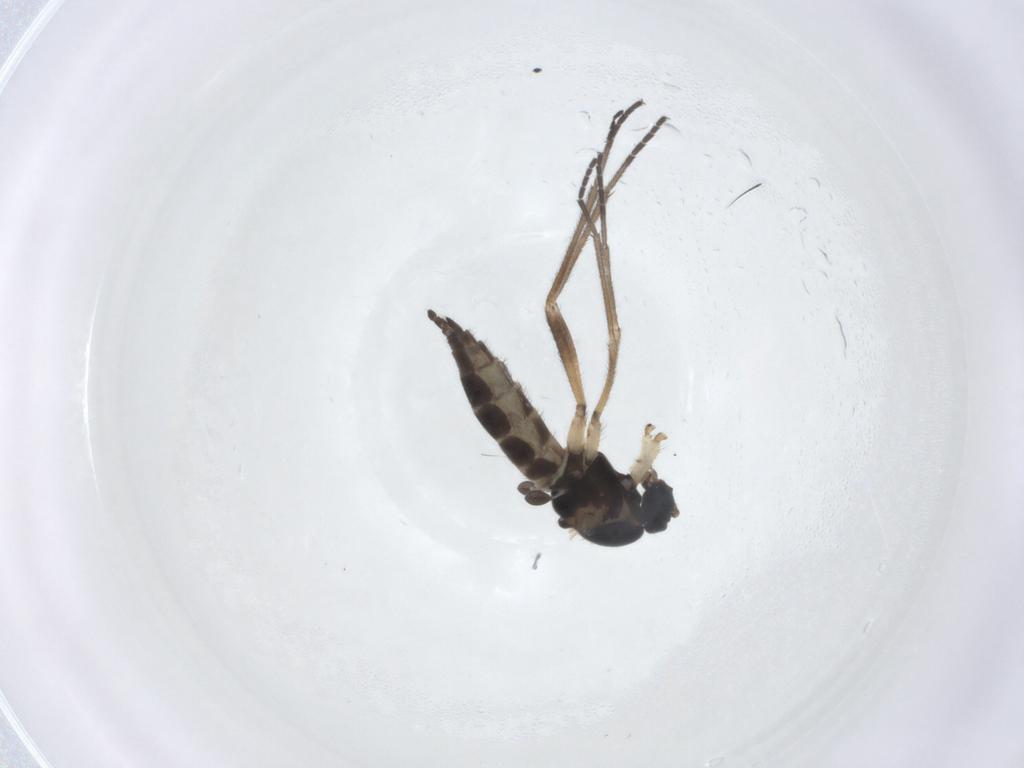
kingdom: Animalia
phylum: Arthropoda
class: Insecta
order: Diptera
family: Sciaridae
